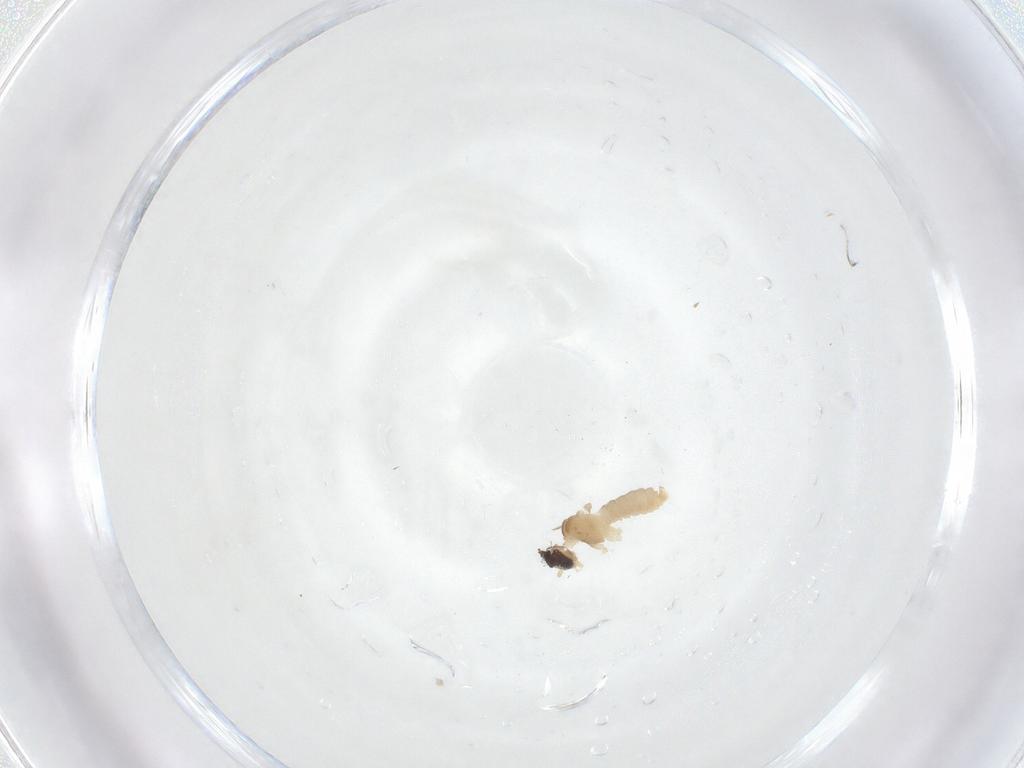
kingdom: Animalia
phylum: Arthropoda
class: Insecta
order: Diptera
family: Cecidomyiidae
